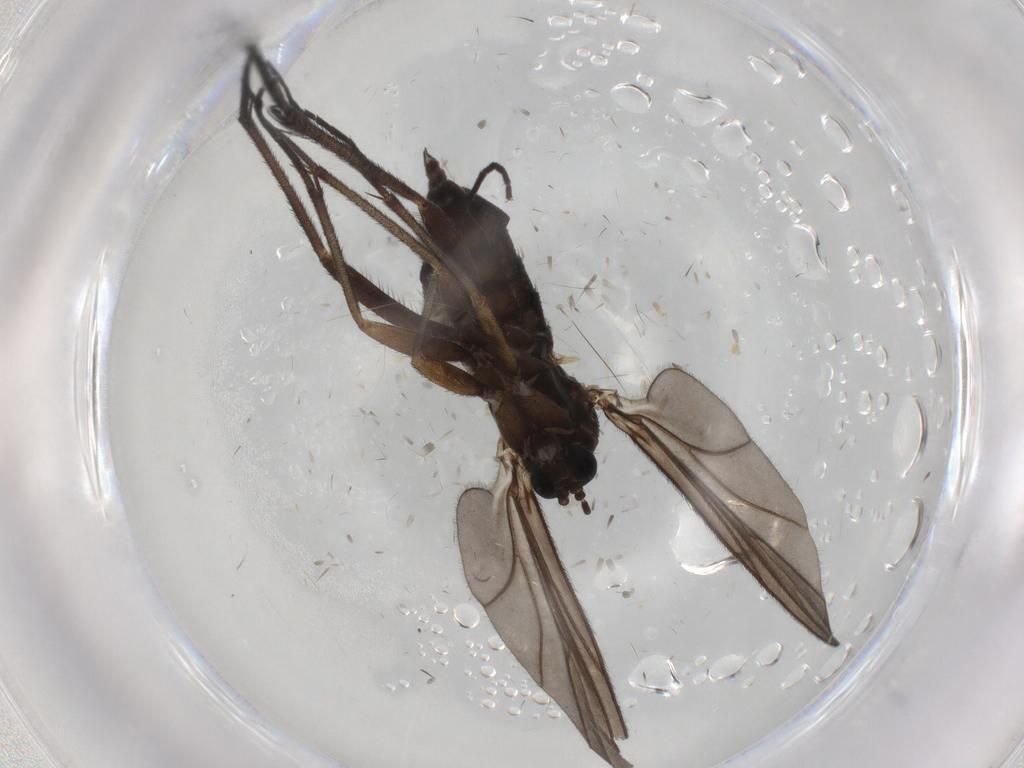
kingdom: Animalia
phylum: Arthropoda
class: Insecta
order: Diptera
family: Sciaridae
